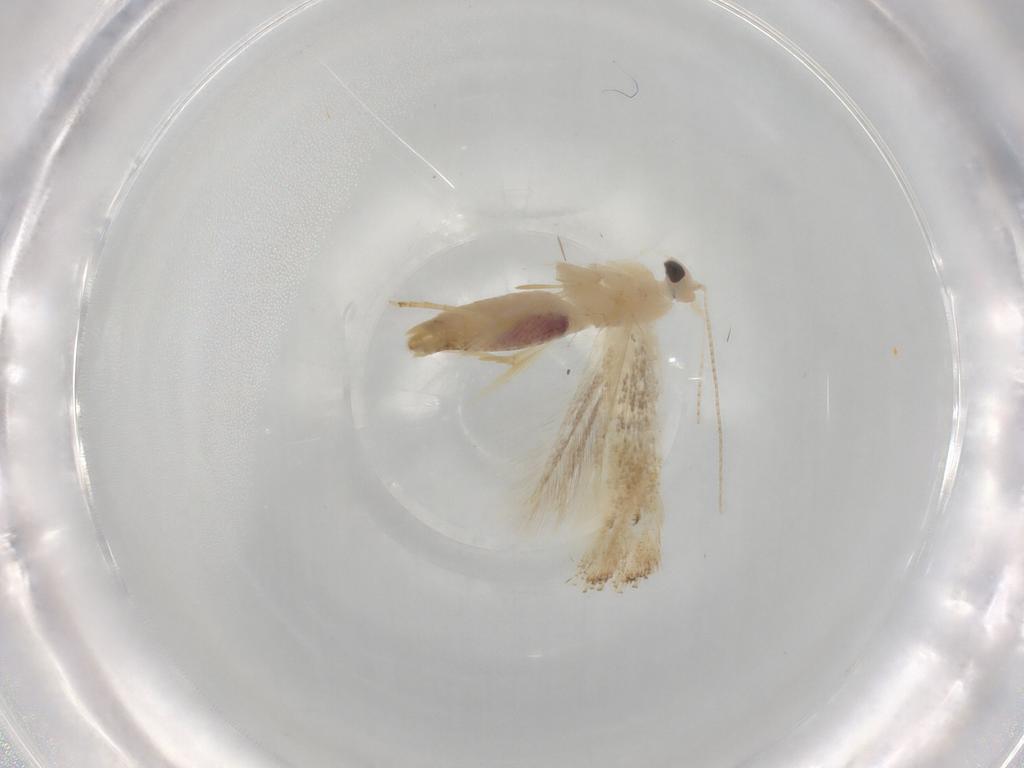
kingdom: Animalia
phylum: Arthropoda
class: Insecta
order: Lepidoptera
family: Bucculatricidae
